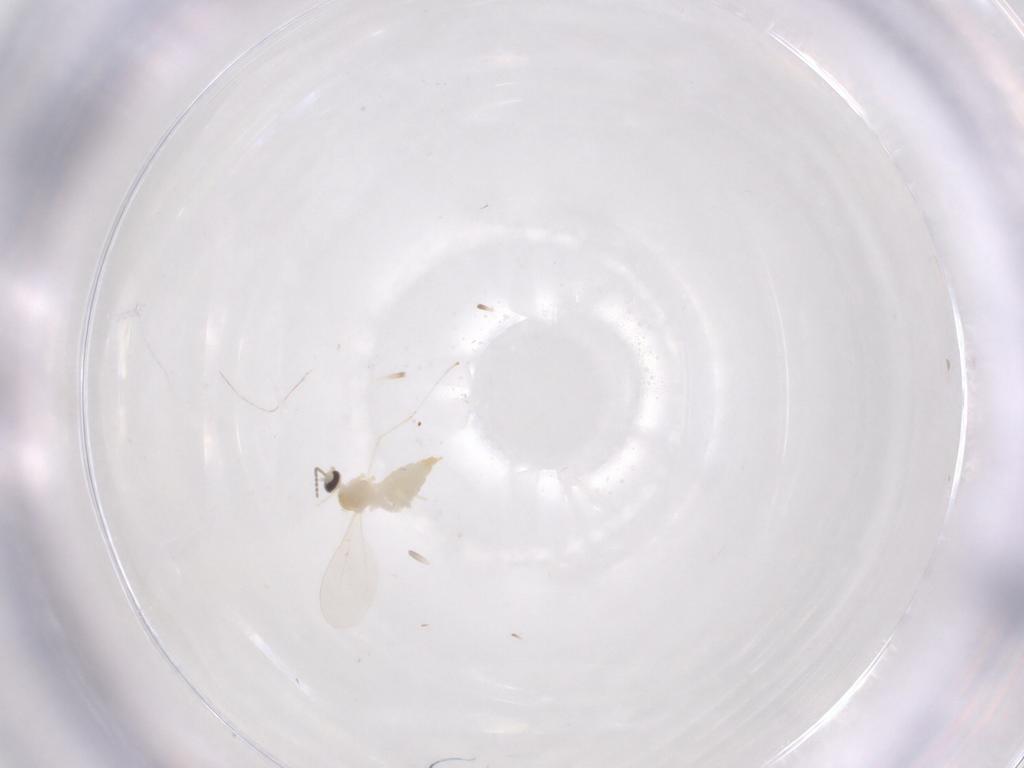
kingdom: Animalia
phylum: Arthropoda
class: Insecta
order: Diptera
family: Cecidomyiidae
